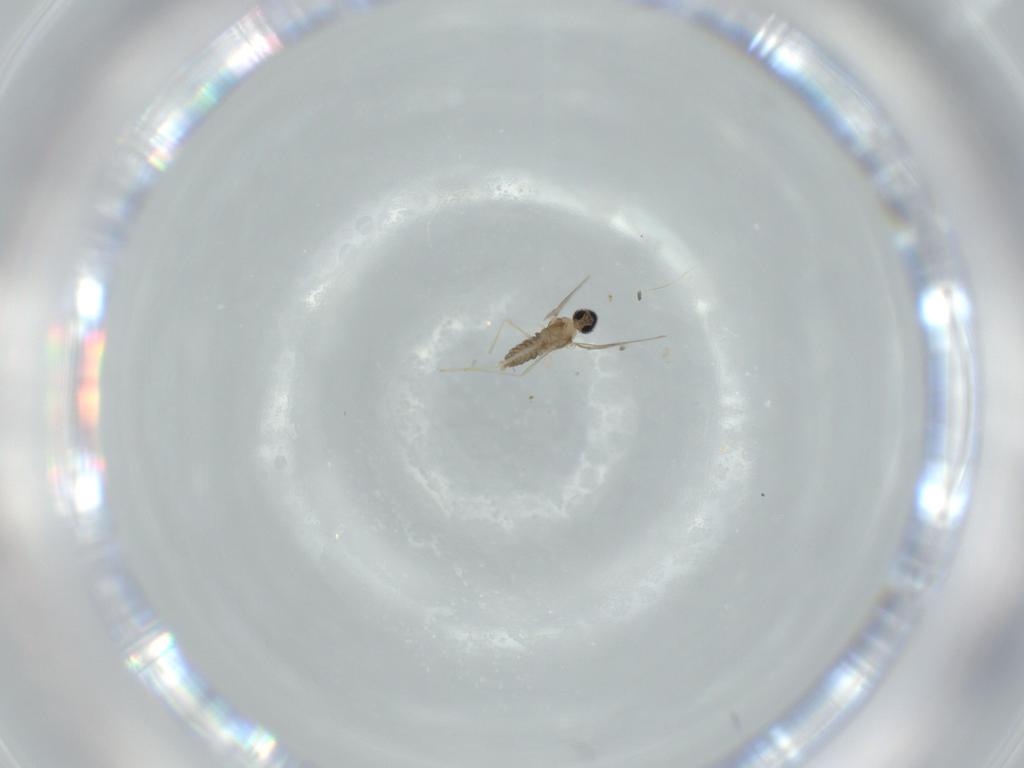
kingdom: Animalia
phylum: Arthropoda
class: Insecta
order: Diptera
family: Cecidomyiidae
